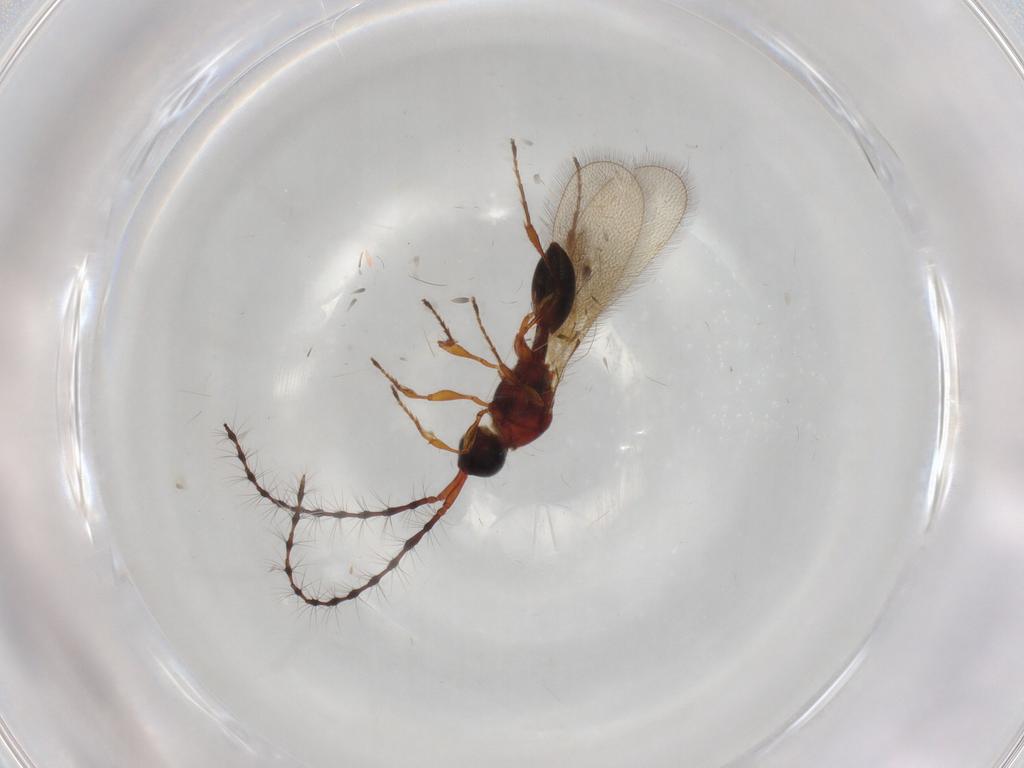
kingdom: Animalia
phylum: Arthropoda
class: Insecta
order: Hymenoptera
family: Diapriidae
